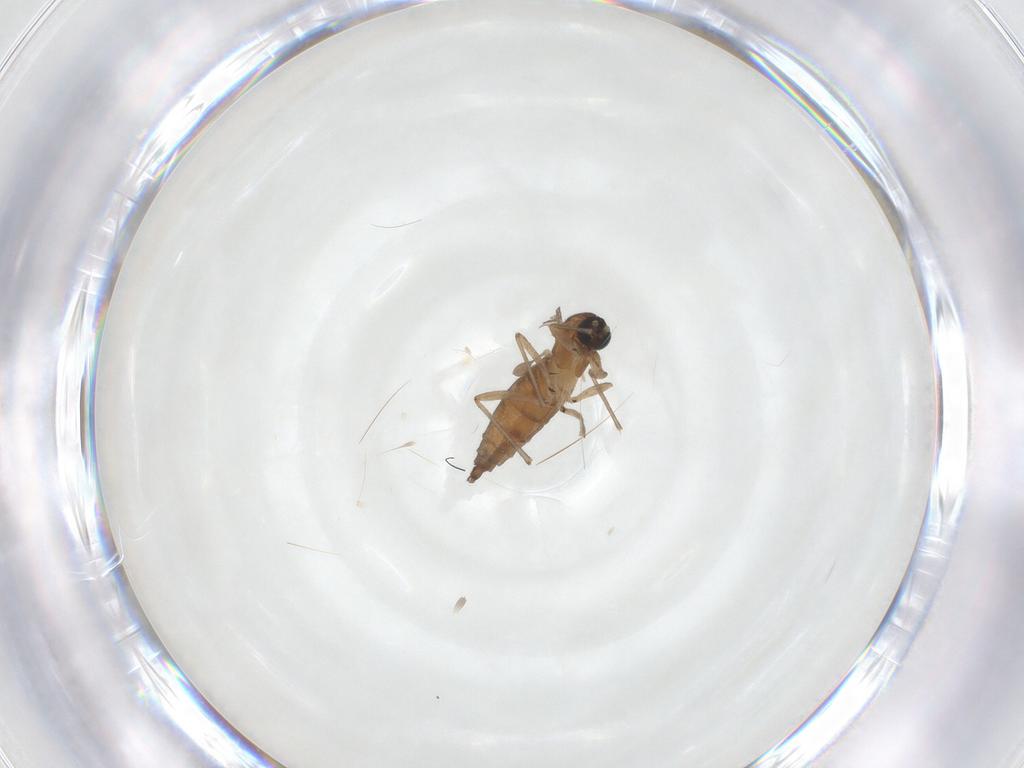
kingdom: Animalia
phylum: Arthropoda
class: Insecta
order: Diptera
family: Sciaridae
